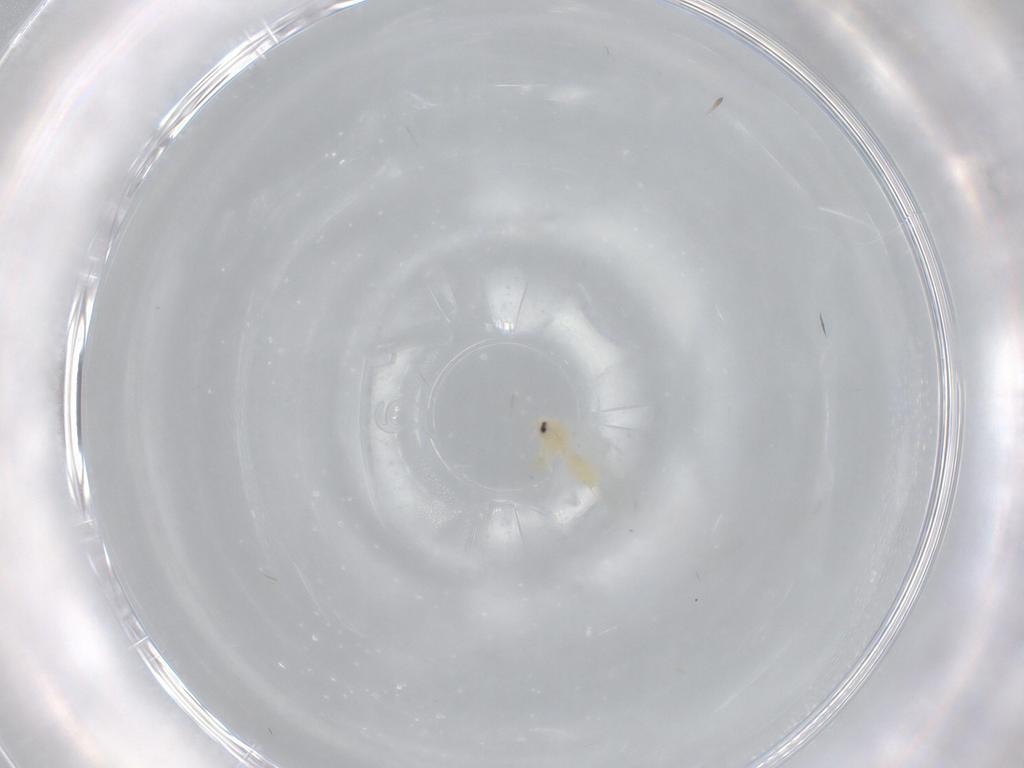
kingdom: Animalia
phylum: Arthropoda
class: Insecta
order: Hemiptera
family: Aleyrodidae
